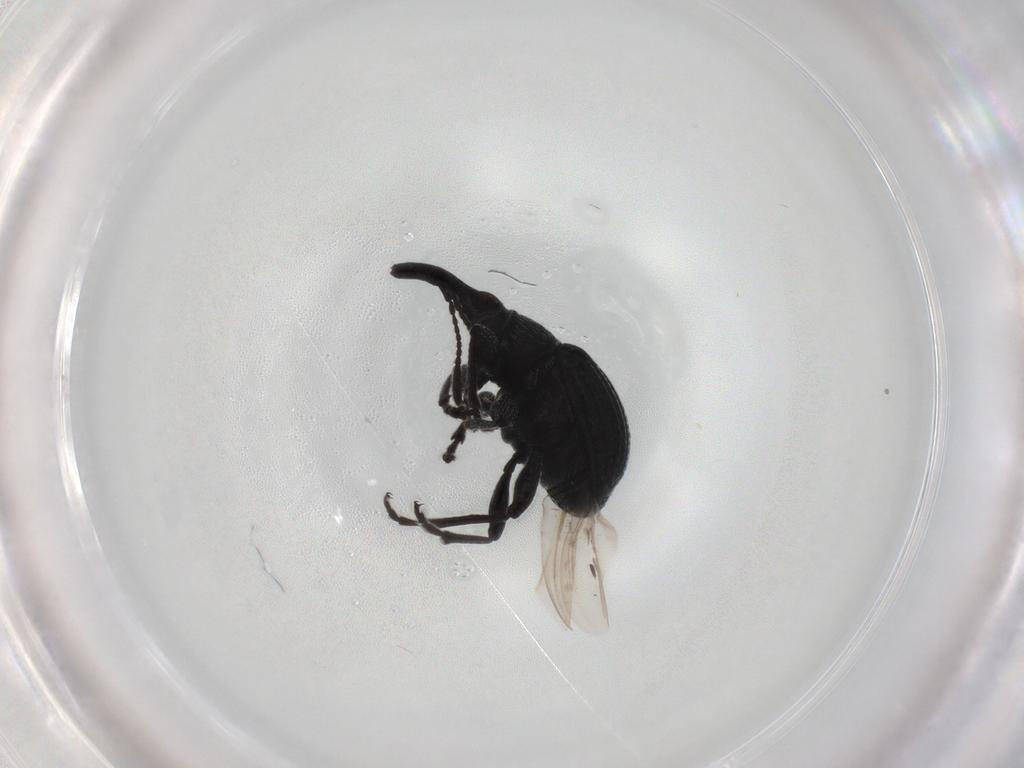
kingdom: Animalia
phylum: Arthropoda
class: Insecta
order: Coleoptera
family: Brentidae
